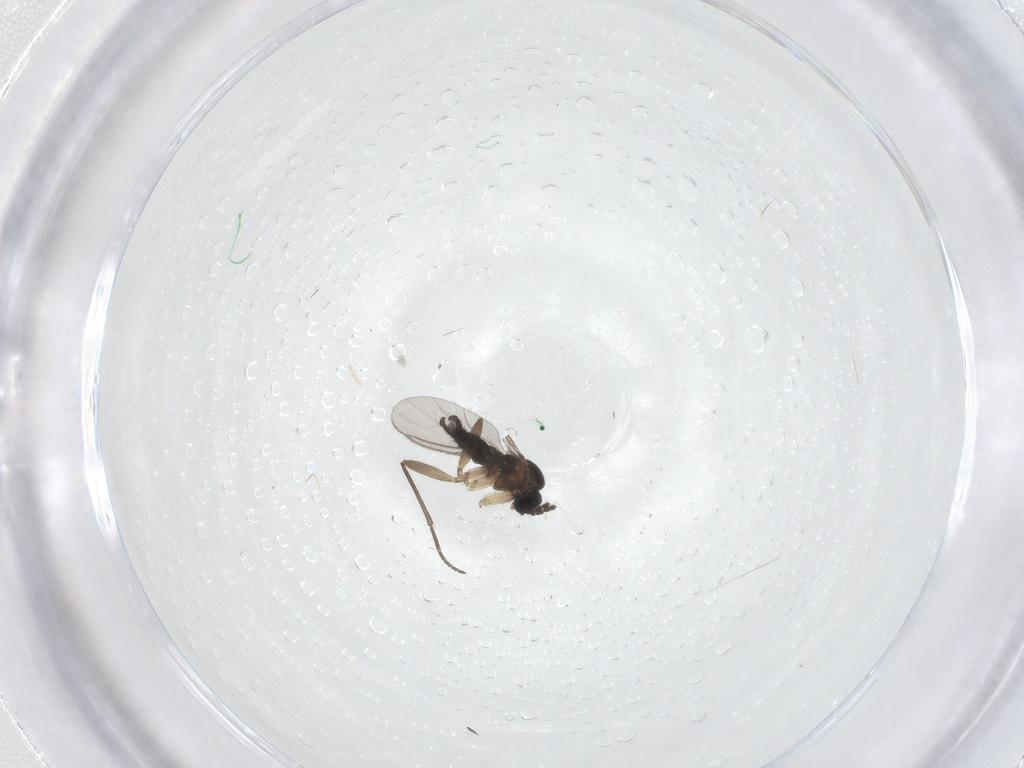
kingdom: Animalia
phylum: Arthropoda
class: Insecta
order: Diptera
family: Sciaridae
